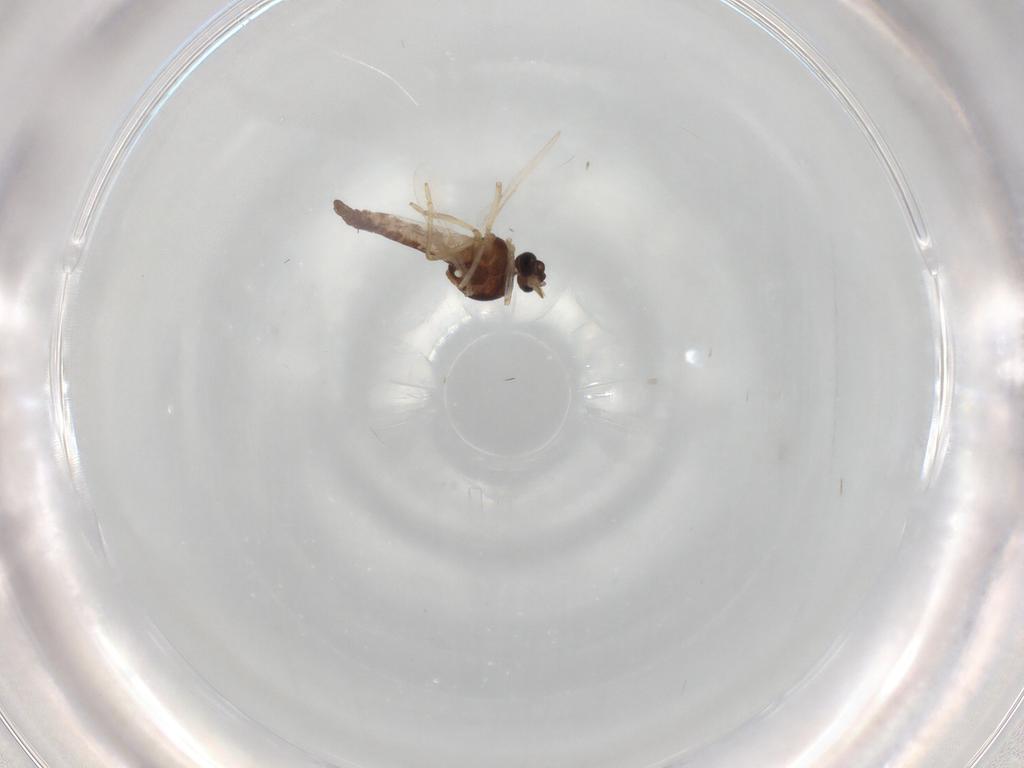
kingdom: Animalia
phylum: Arthropoda
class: Insecta
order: Diptera
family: Ceratopogonidae
